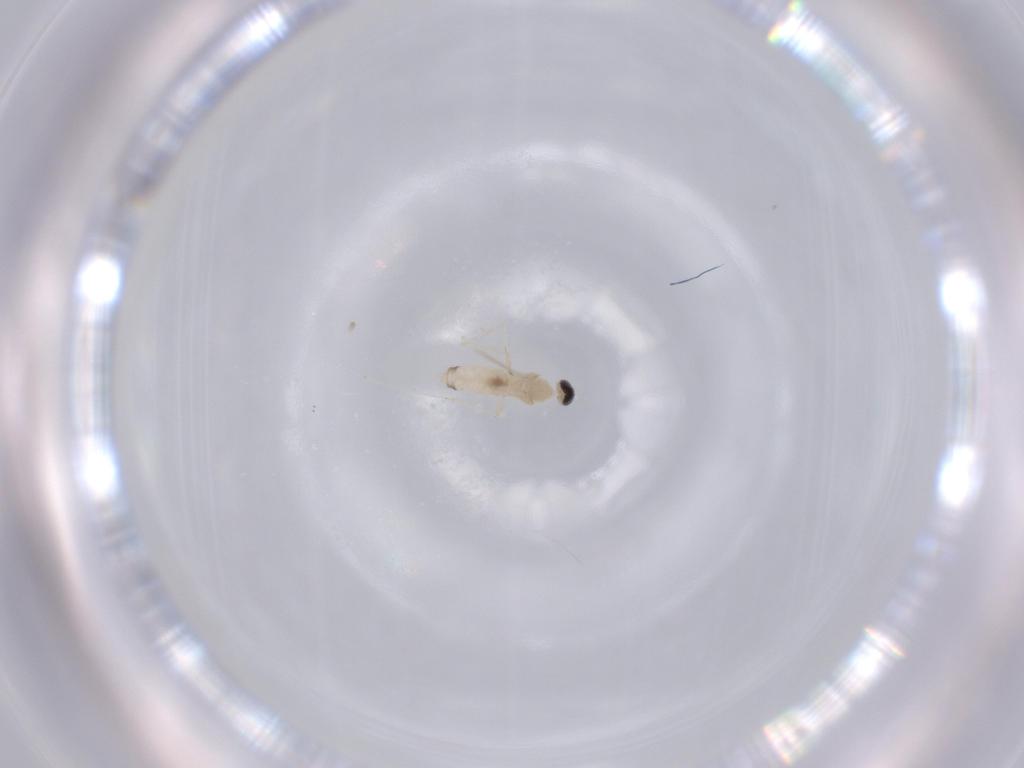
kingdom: Animalia
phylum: Arthropoda
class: Insecta
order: Diptera
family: Cecidomyiidae
